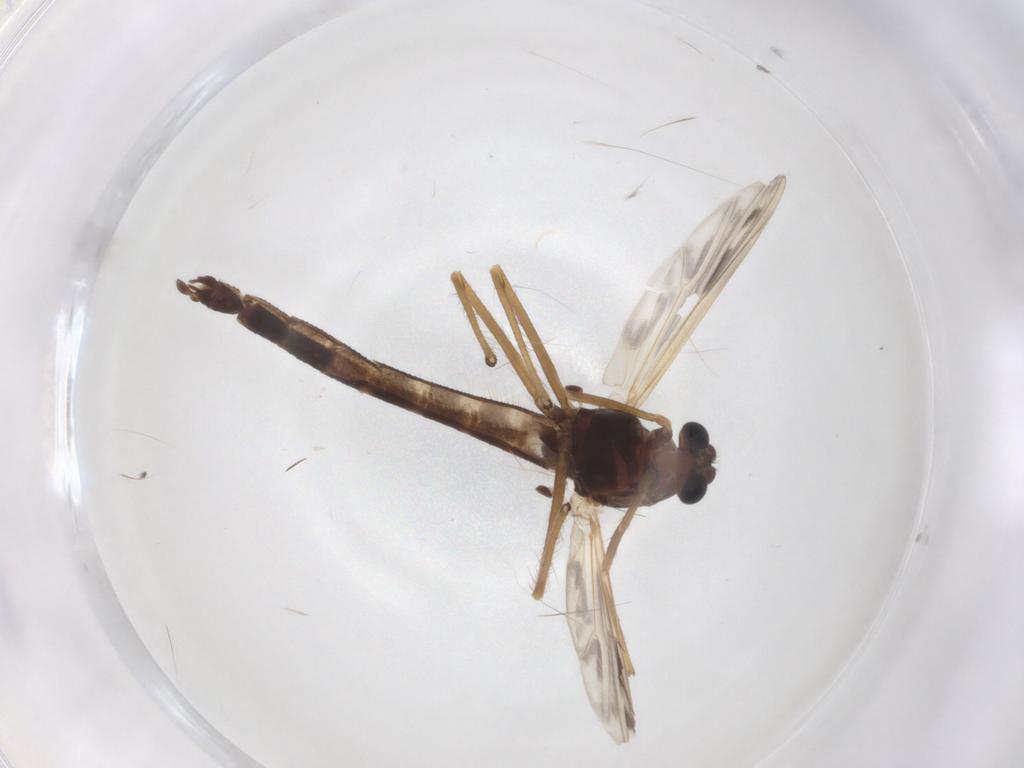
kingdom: Animalia
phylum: Arthropoda
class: Insecta
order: Diptera
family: Chironomidae
